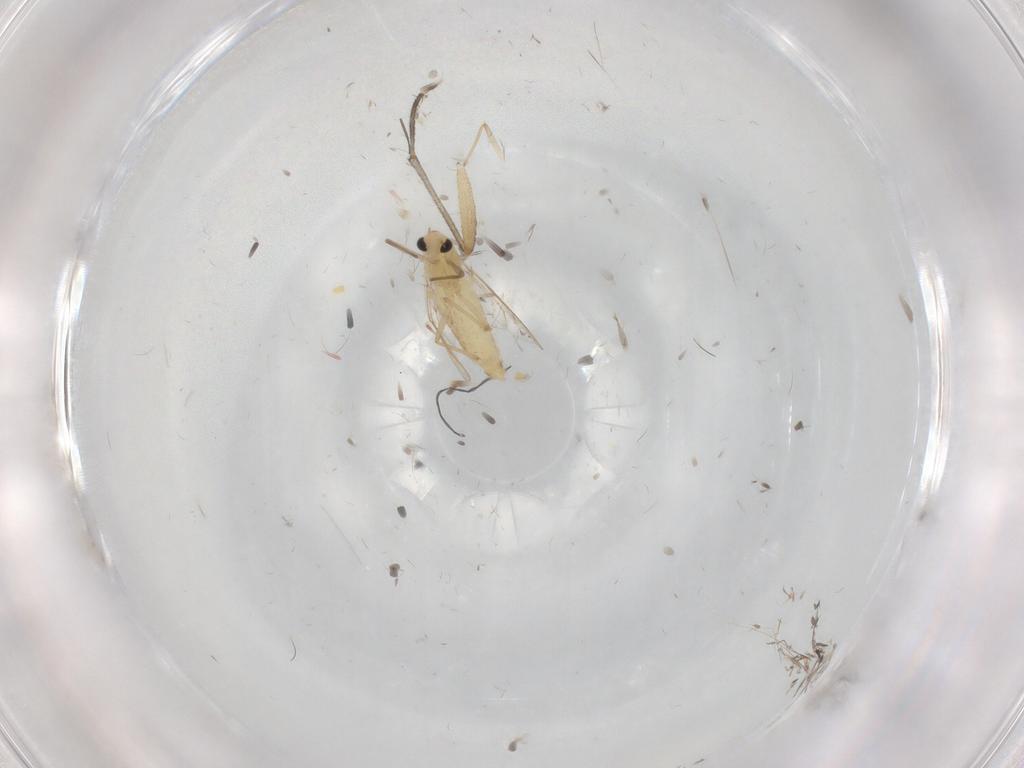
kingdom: Animalia
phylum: Arthropoda
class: Insecta
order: Diptera
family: Chironomidae
